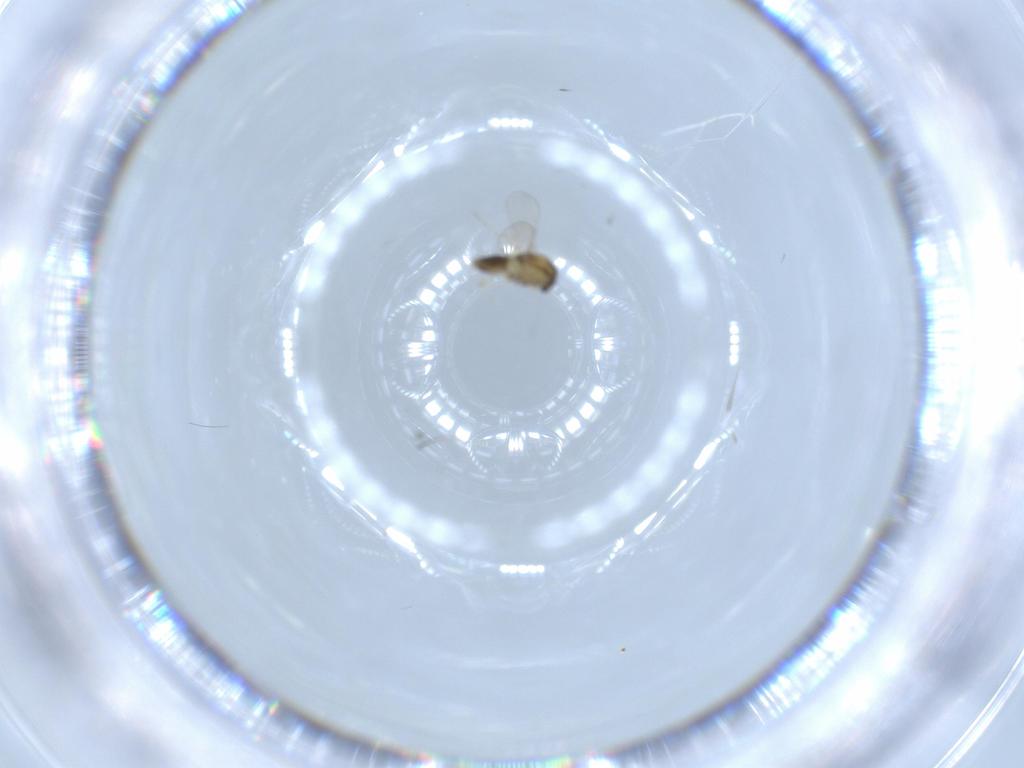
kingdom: Animalia
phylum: Arthropoda
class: Insecta
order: Diptera
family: Chironomidae
